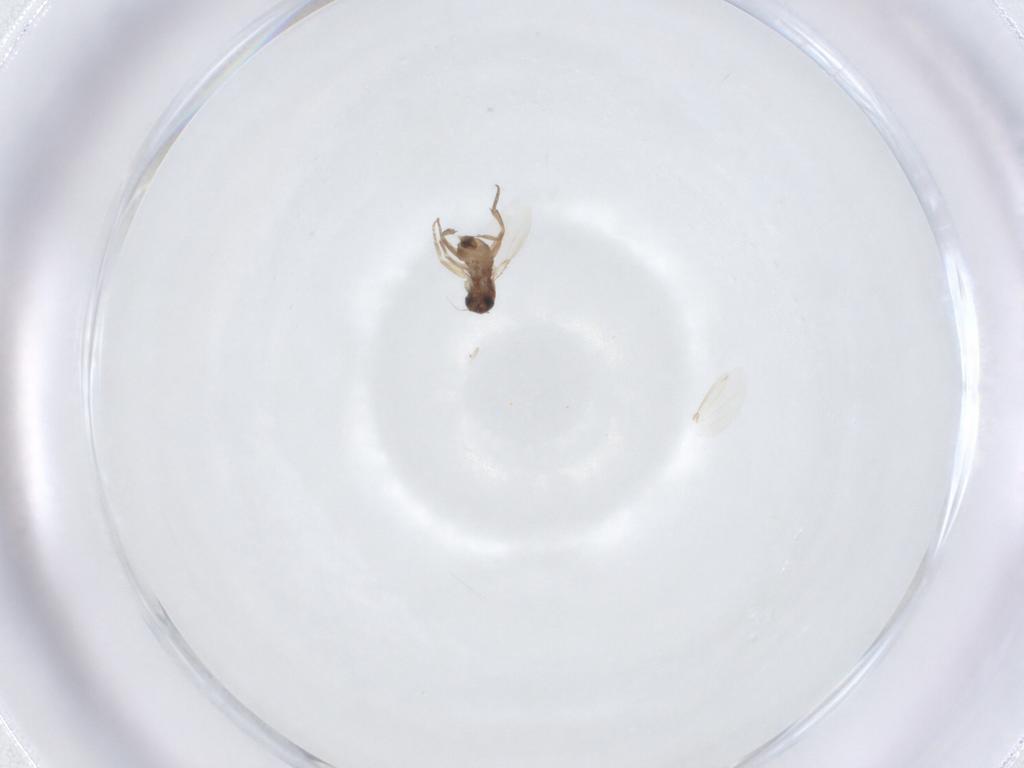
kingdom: Animalia
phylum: Arthropoda
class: Insecta
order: Diptera
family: Phoridae
